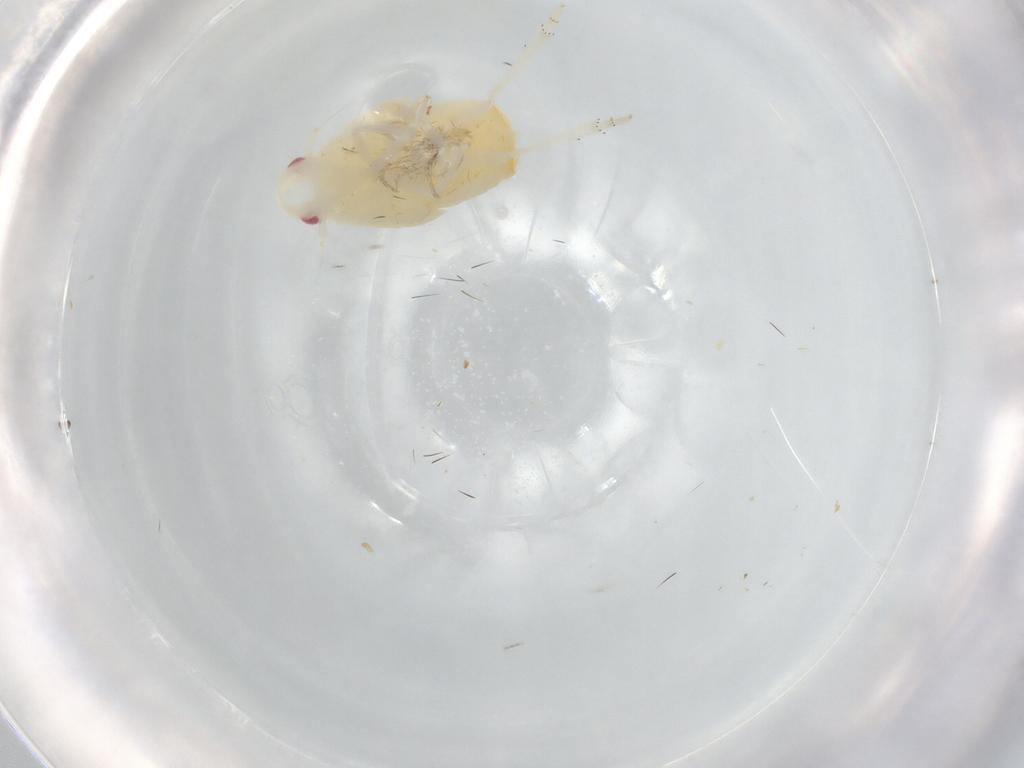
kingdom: Animalia
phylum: Arthropoda
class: Insecta
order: Hemiptera
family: Flatidae
